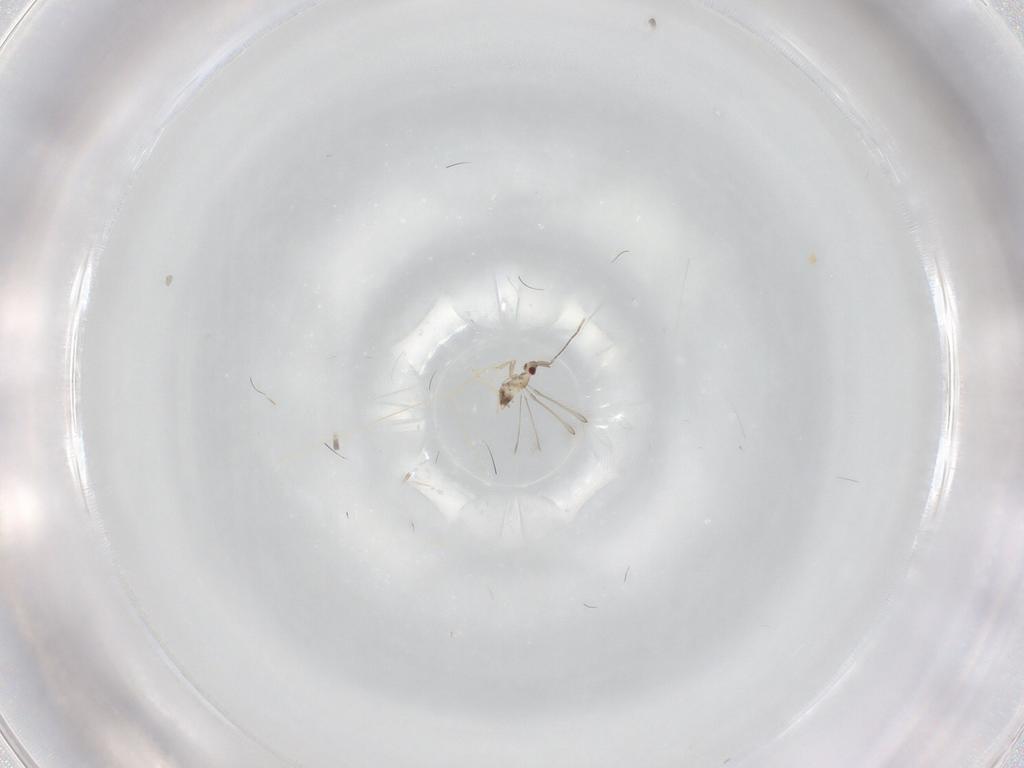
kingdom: Animalia
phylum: Arthropoda
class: Insecta
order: Hymenoptera
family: Mymaridae
